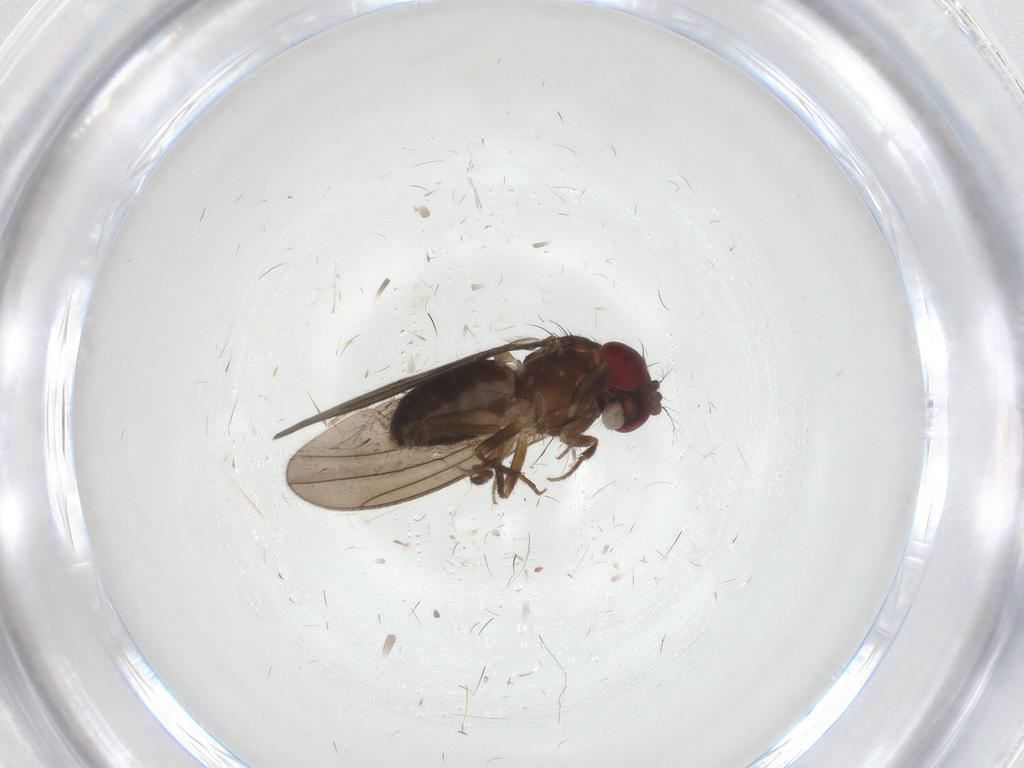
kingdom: Animalia
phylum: Arthropoda
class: Insecta
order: Diptera
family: Drosophilidae
